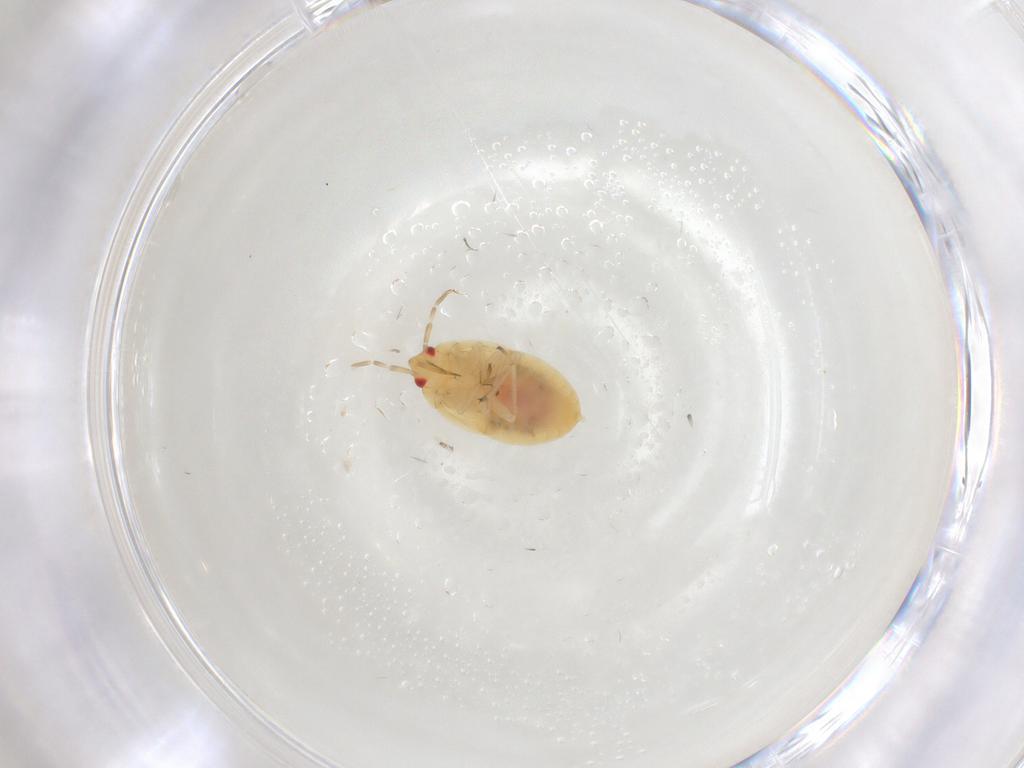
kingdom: Animalia
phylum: Arthropoda
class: Insecta
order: Hemiptera
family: Anthocoridae
